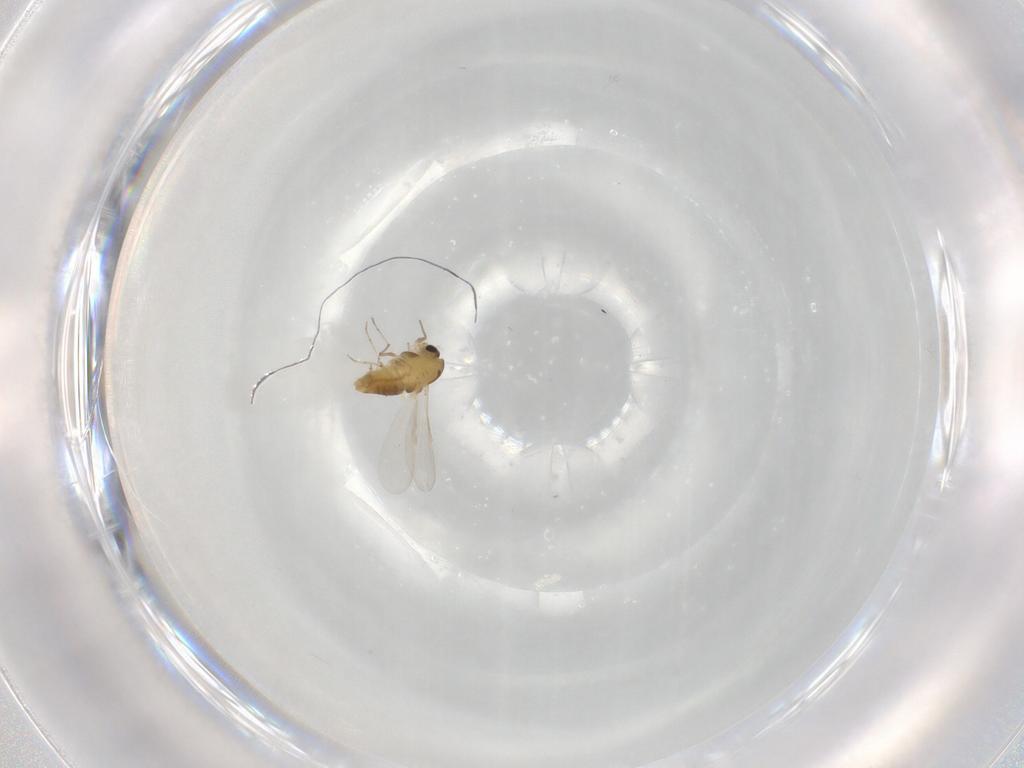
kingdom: Animalia
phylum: Arthropoda
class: Insecta
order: Diptera
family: Chironomidae
